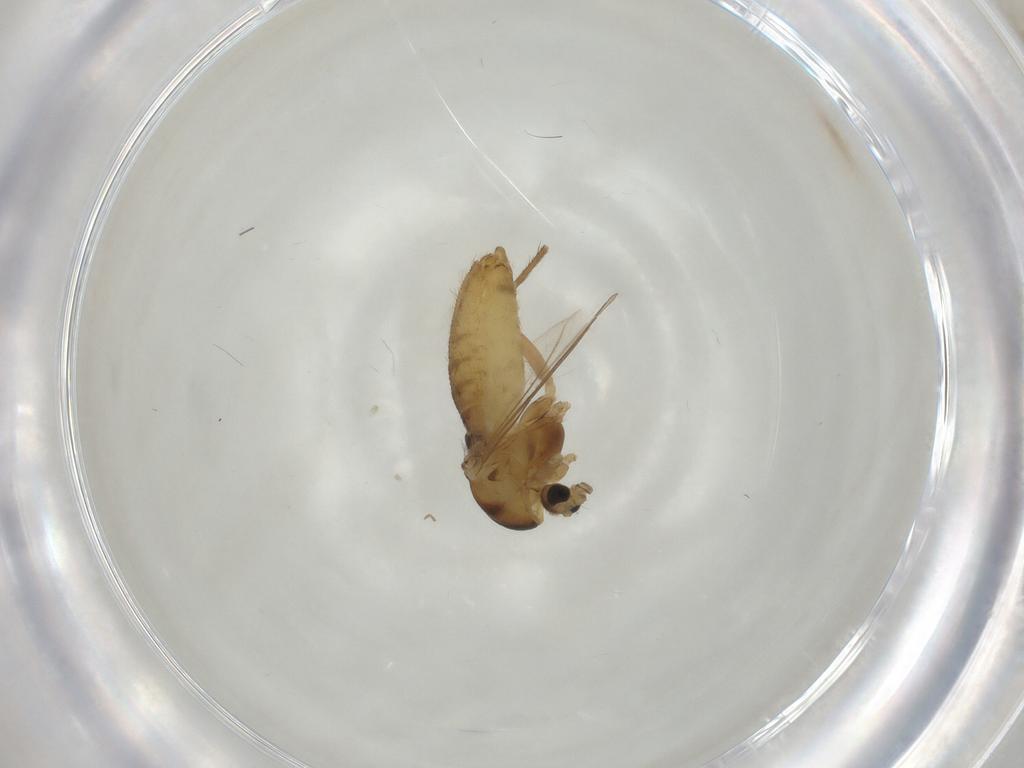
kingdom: Animalia
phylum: Arthropoda
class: Insecta
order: Diptera
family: Chironomidae
